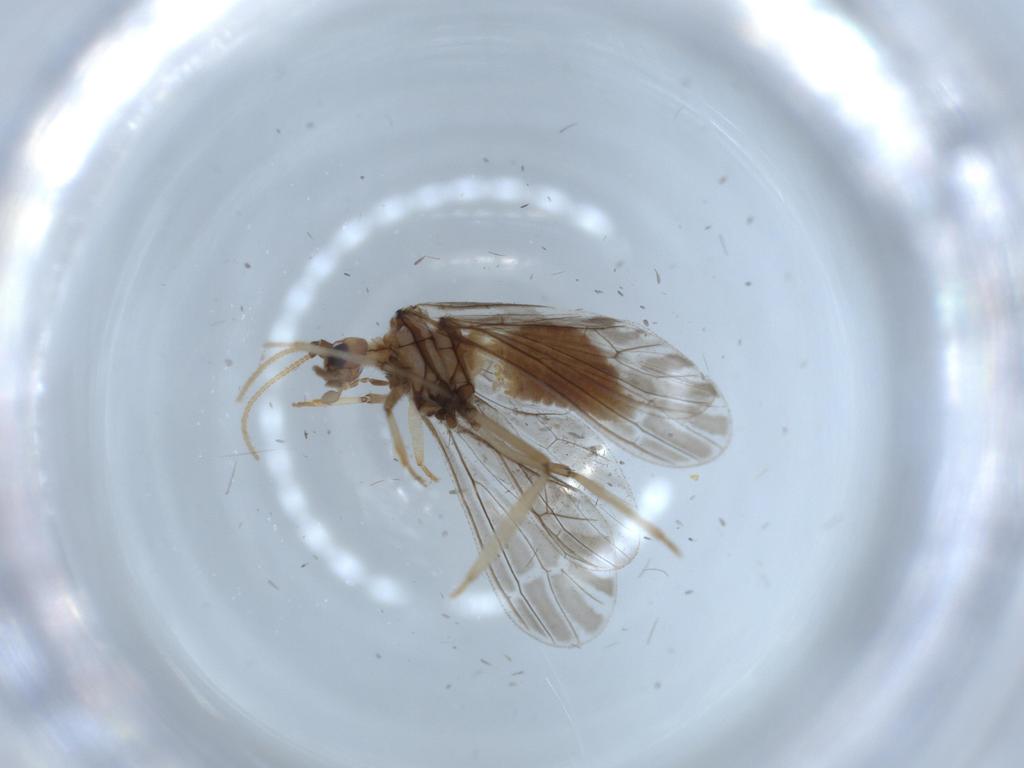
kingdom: Animalia
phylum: Arthropoda
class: Insecta
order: Neuroptera
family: Coniopterygidae
